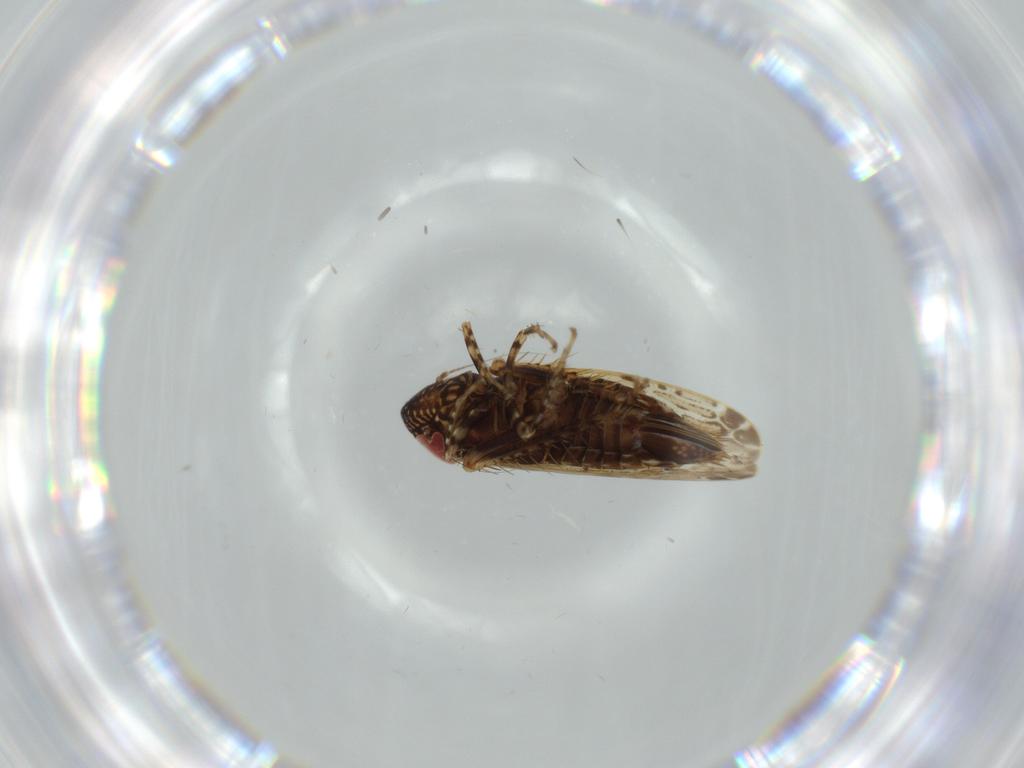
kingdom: Animalia
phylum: Arthropoda
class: Insecta
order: Hemiptera
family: Cicadellidae
